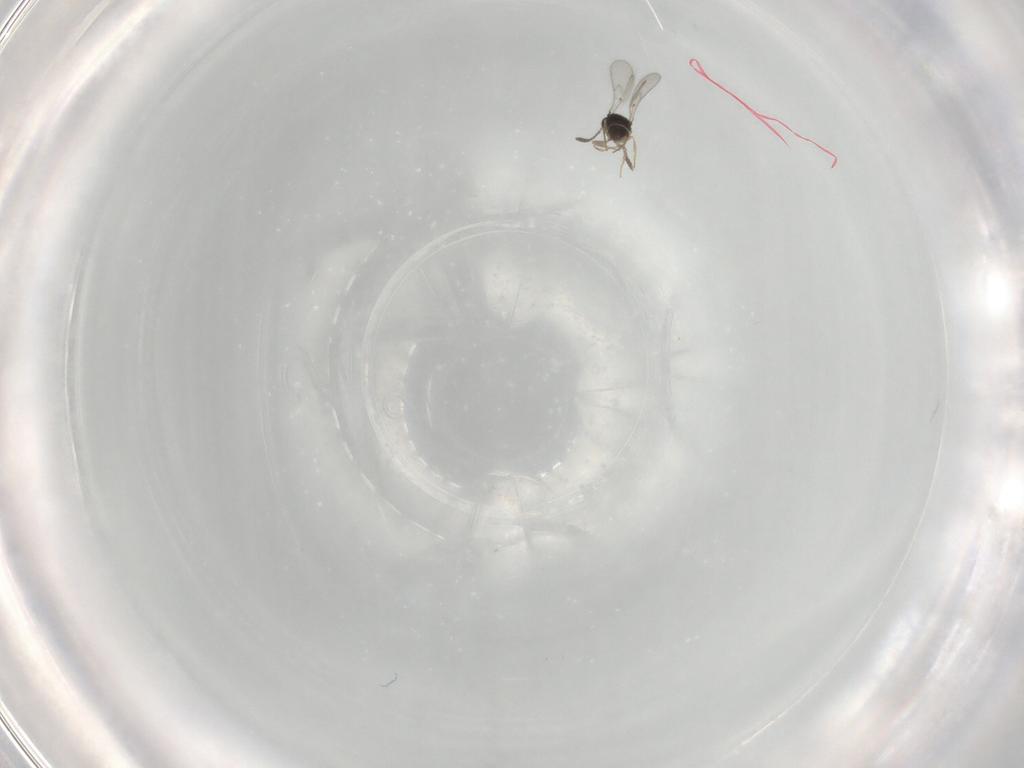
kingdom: Animalia
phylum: Arthropoda
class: Insecta
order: Hymenoptera
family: Scelionidae
